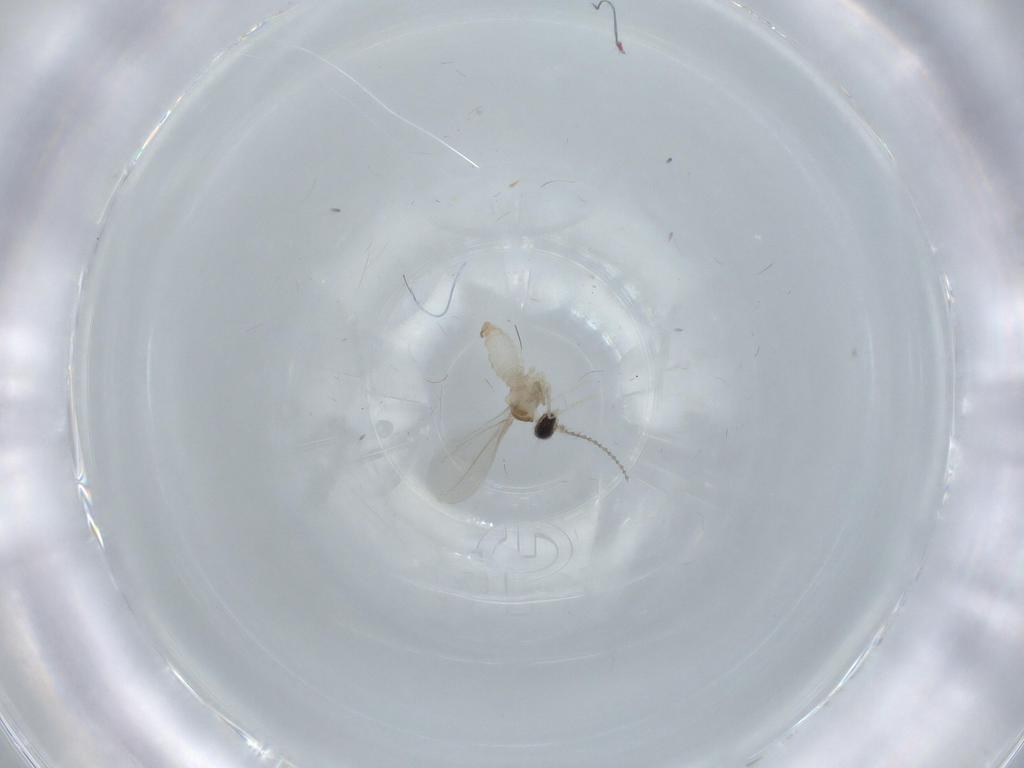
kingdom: Animalia
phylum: Arthropoda
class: Insecta
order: Diptera
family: Cecidomyiidae
